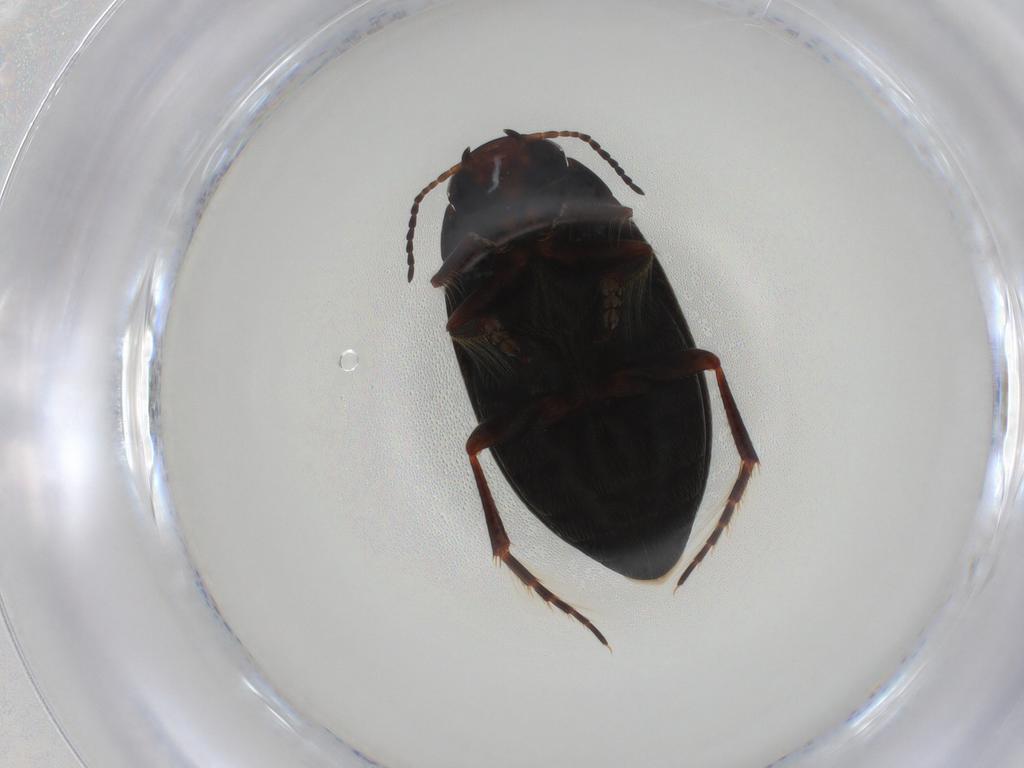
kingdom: Animalia
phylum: Arthropoda
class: Insecta
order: Coleoptera
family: Dytiscidae
